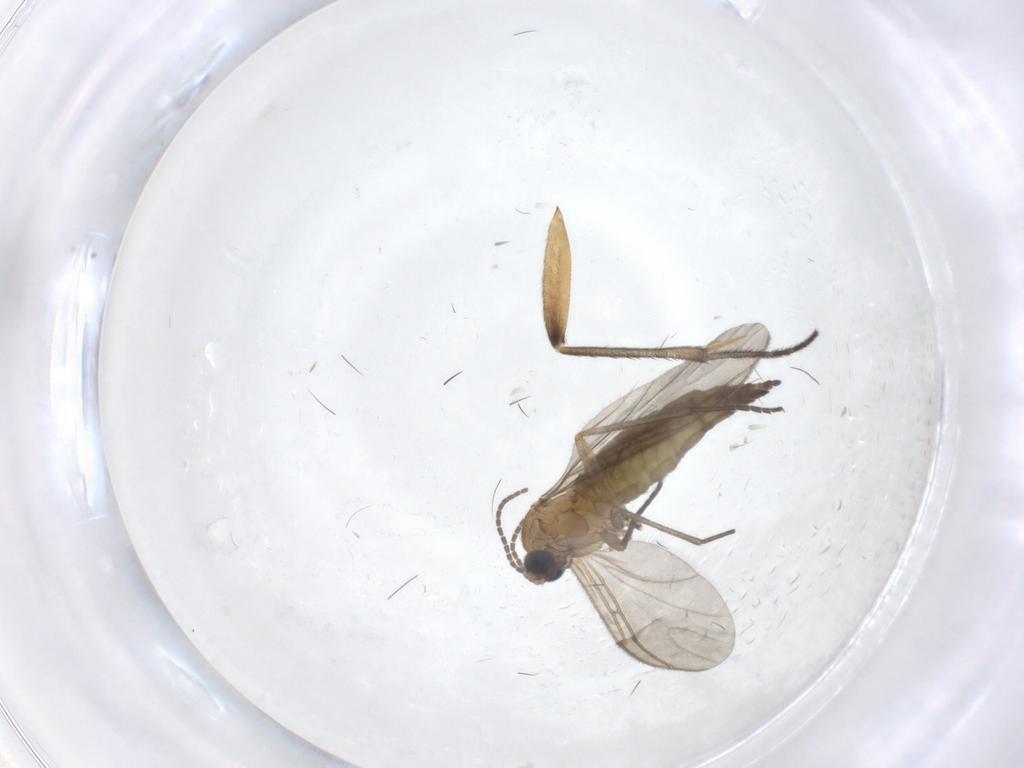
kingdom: Animalia
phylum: Arthropoda
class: Insecta
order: Diptera
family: Sciaridae
